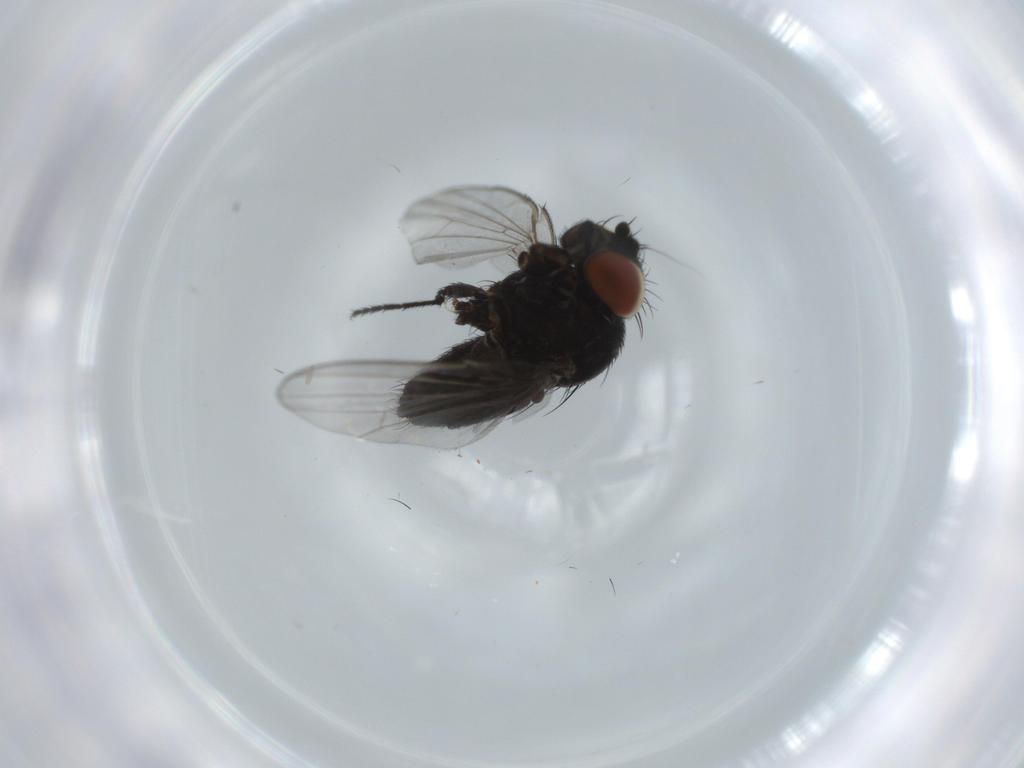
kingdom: Animalia
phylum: Arthropoda
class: Insecta
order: Diptera
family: Milichiidae
